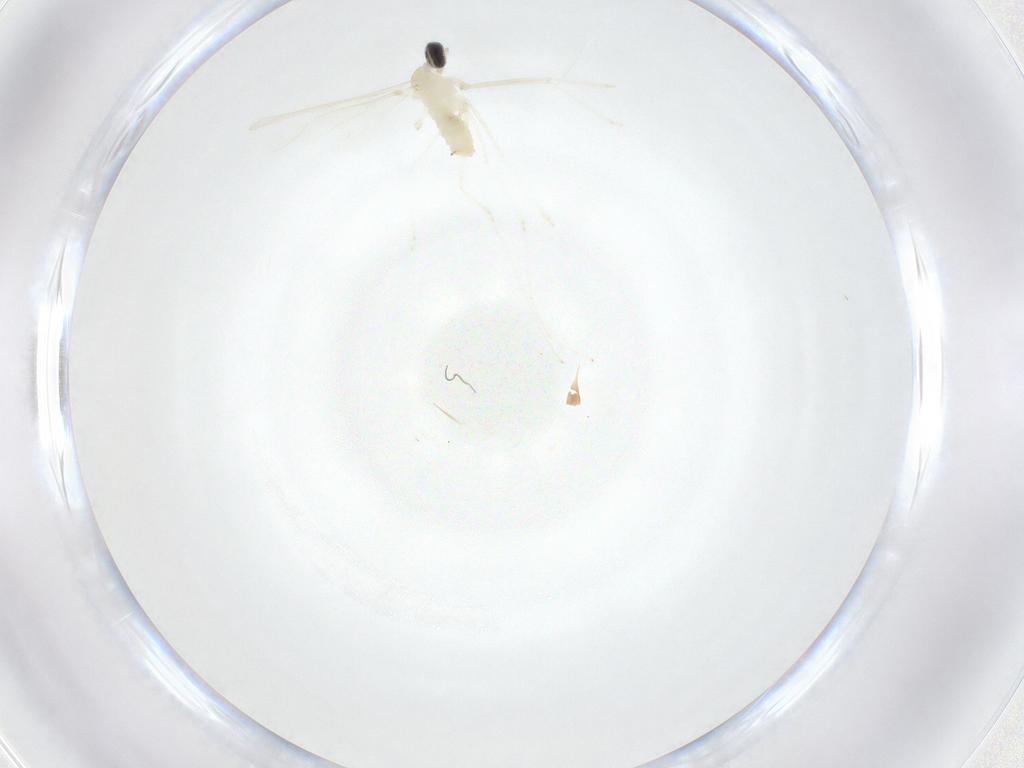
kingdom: Animalia
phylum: Arthropoda
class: Insecta
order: Diptera
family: Cecidomyiidae
